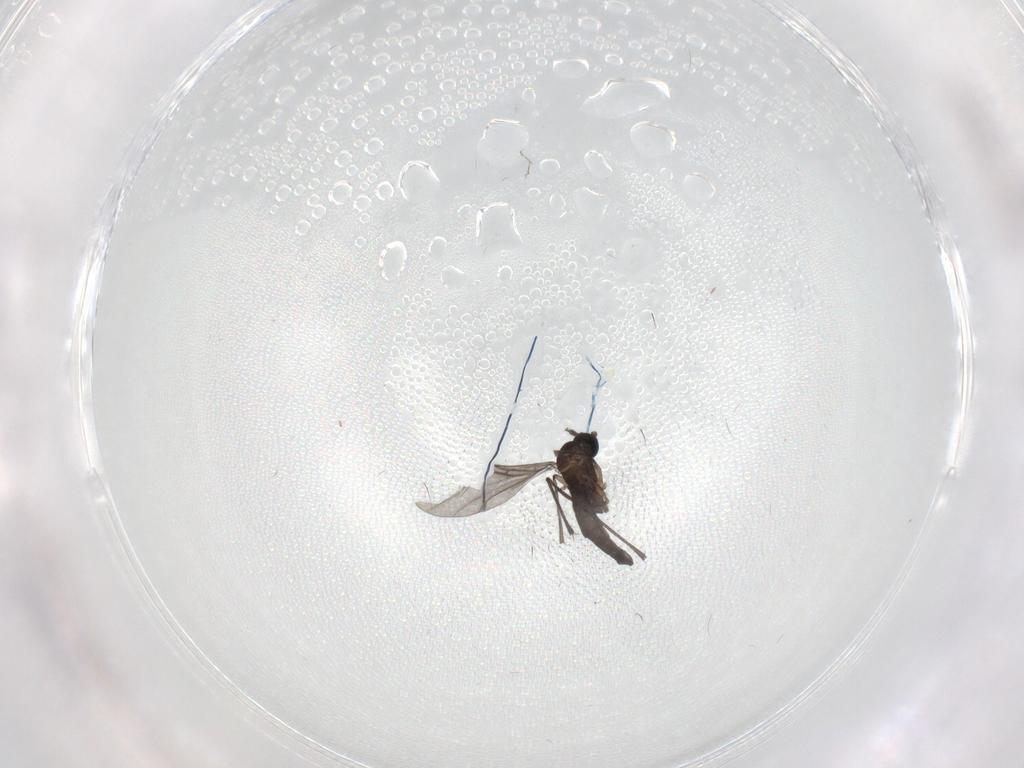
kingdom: Animalia
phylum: Arthropoda
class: Insecta
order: Diptera
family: Sciaridae
